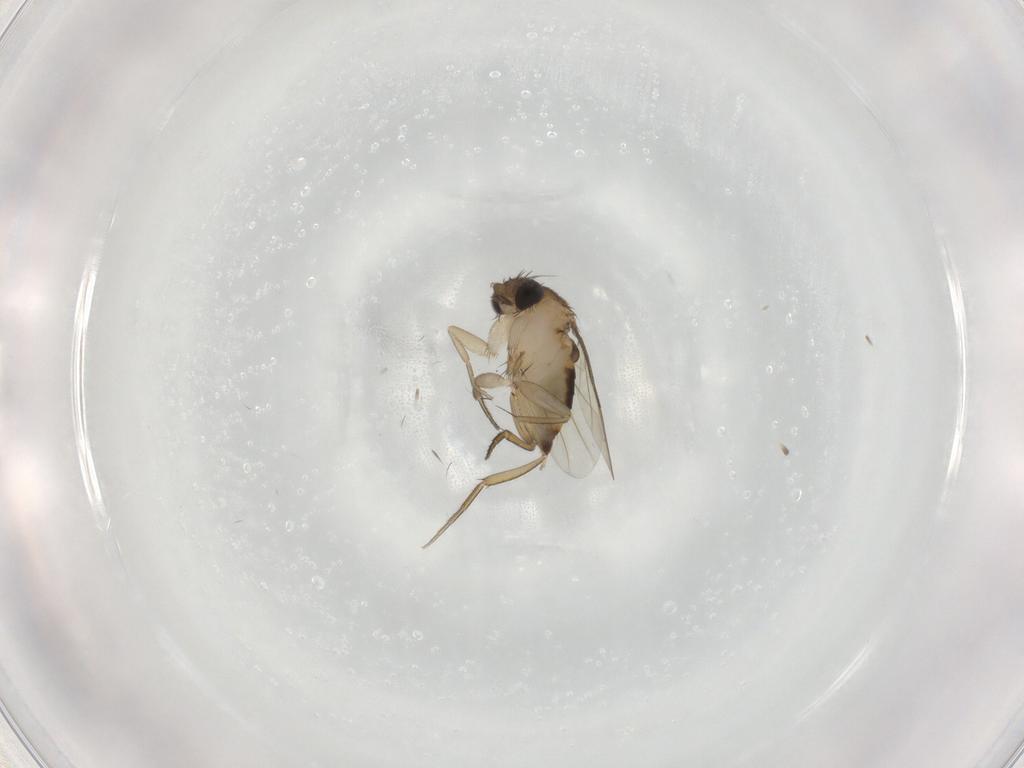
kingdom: Animalia
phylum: Arthropoda
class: Insecta
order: Diptera
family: Phoridae
